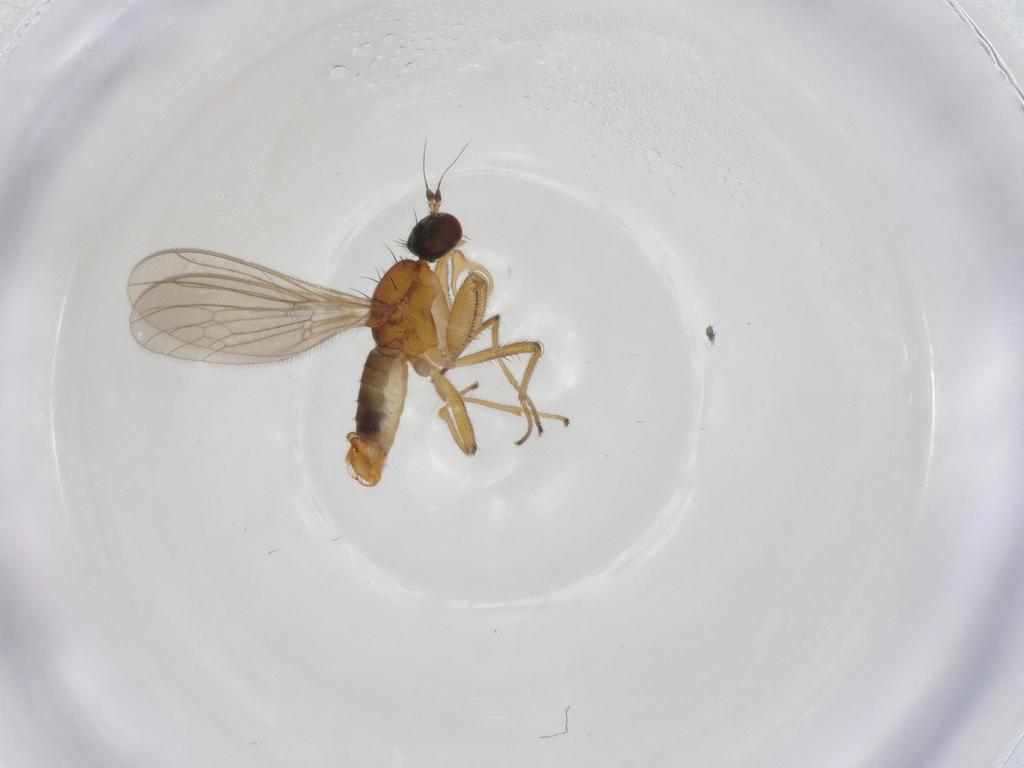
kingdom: Animalia
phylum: Arthropoda
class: Insecta
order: Diptera
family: Empididae
